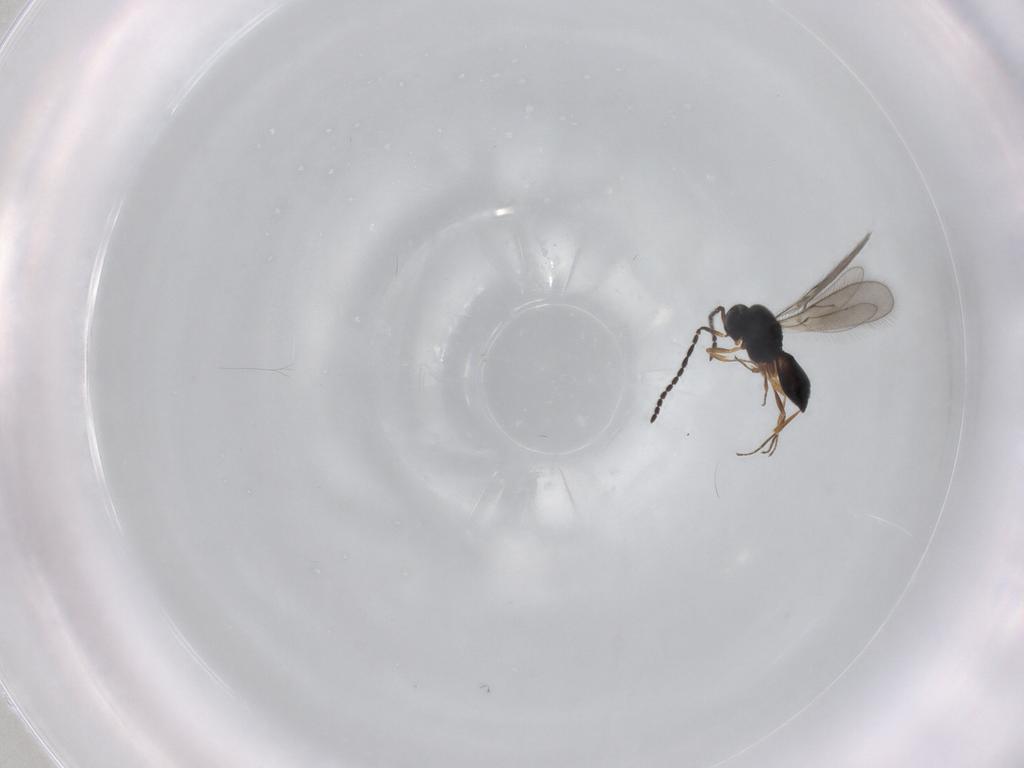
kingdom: Animalia
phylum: Arthropoda
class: Insecta
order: Hymenoptera
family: Scelionidae
